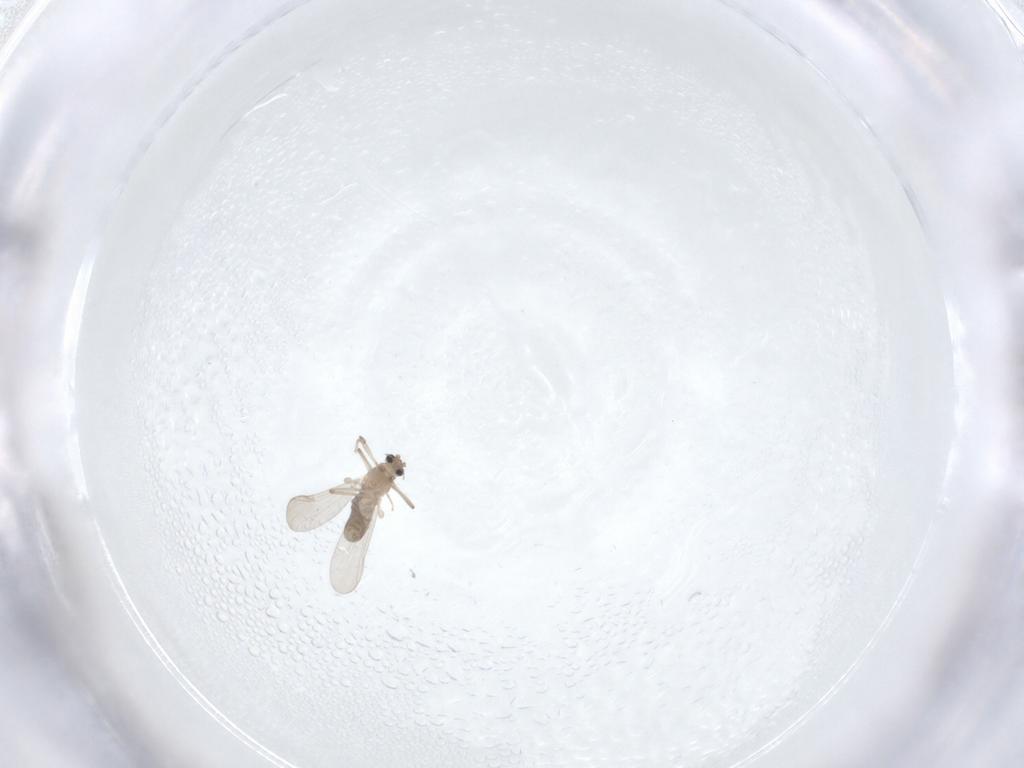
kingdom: Animalia
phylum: Arthropoda
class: Insecta
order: Diptera
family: Chironomidae
